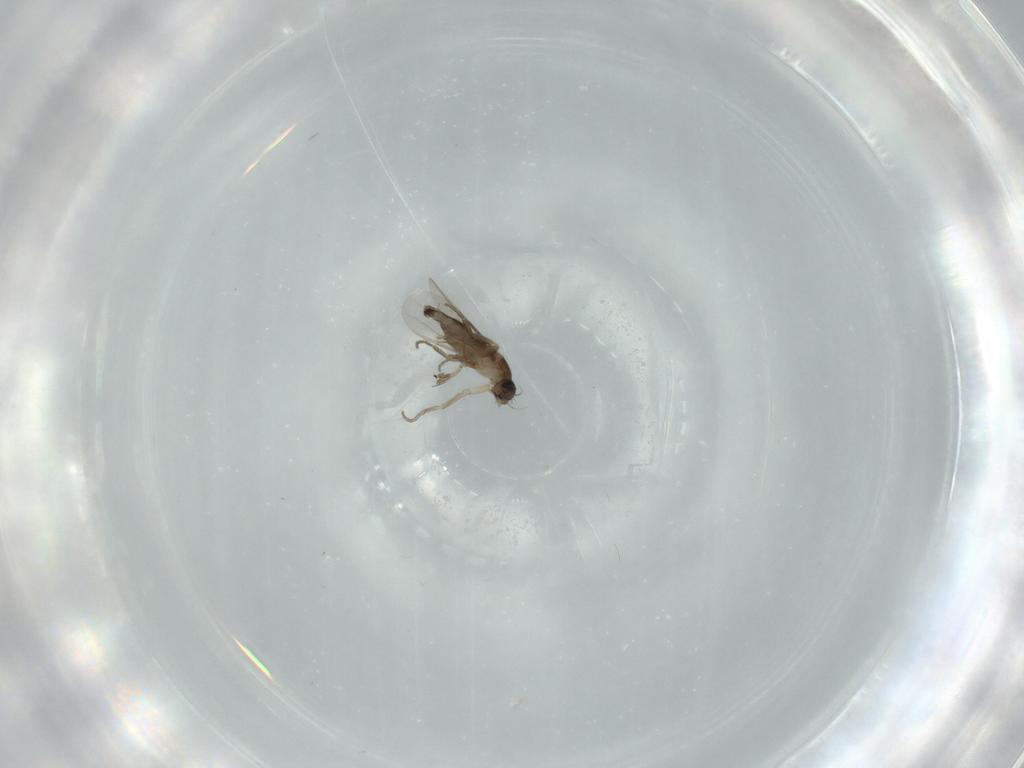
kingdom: Animalia
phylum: Arthropoda
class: Insecta
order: Diptera
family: Phoridae
